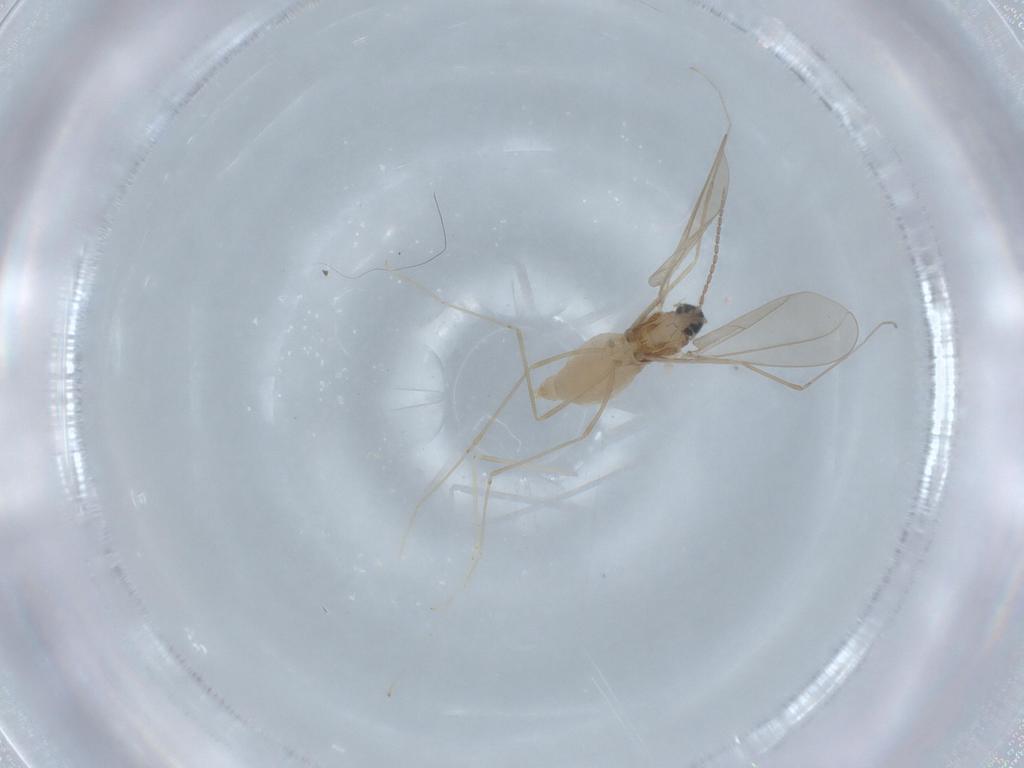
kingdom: Animalia
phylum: Arthropoda
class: Insecta
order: Diptera
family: Cecidomyiidae
